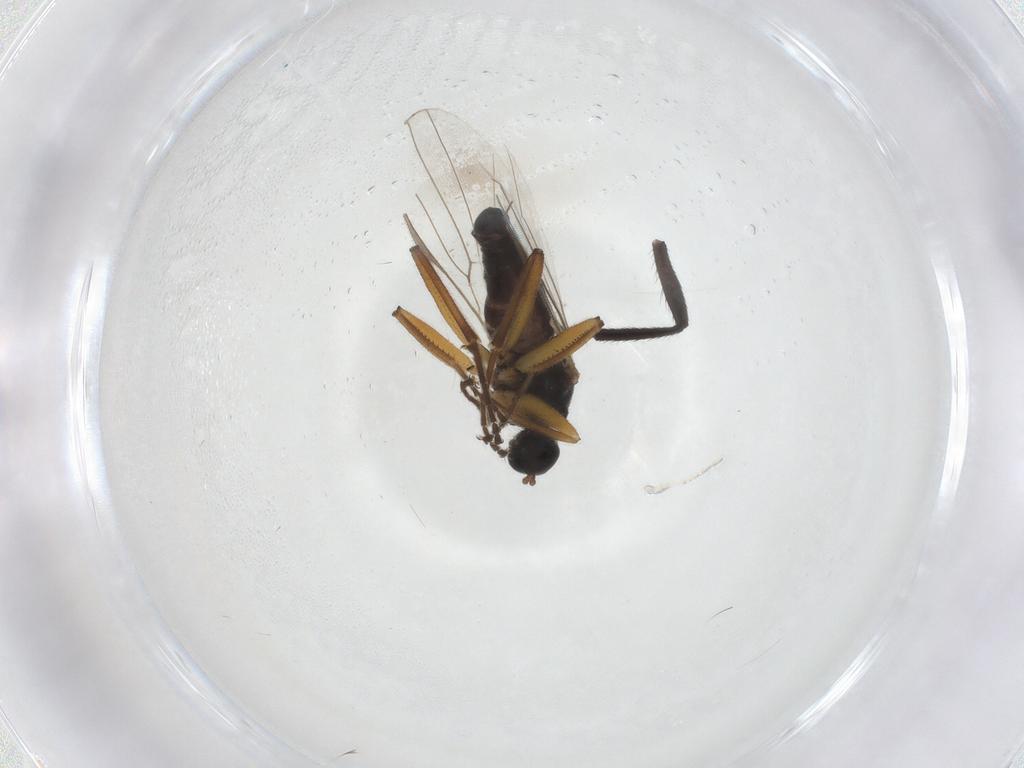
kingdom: Animalia
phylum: Arthropoda
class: Insecta
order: Diptera
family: Hybotidae
